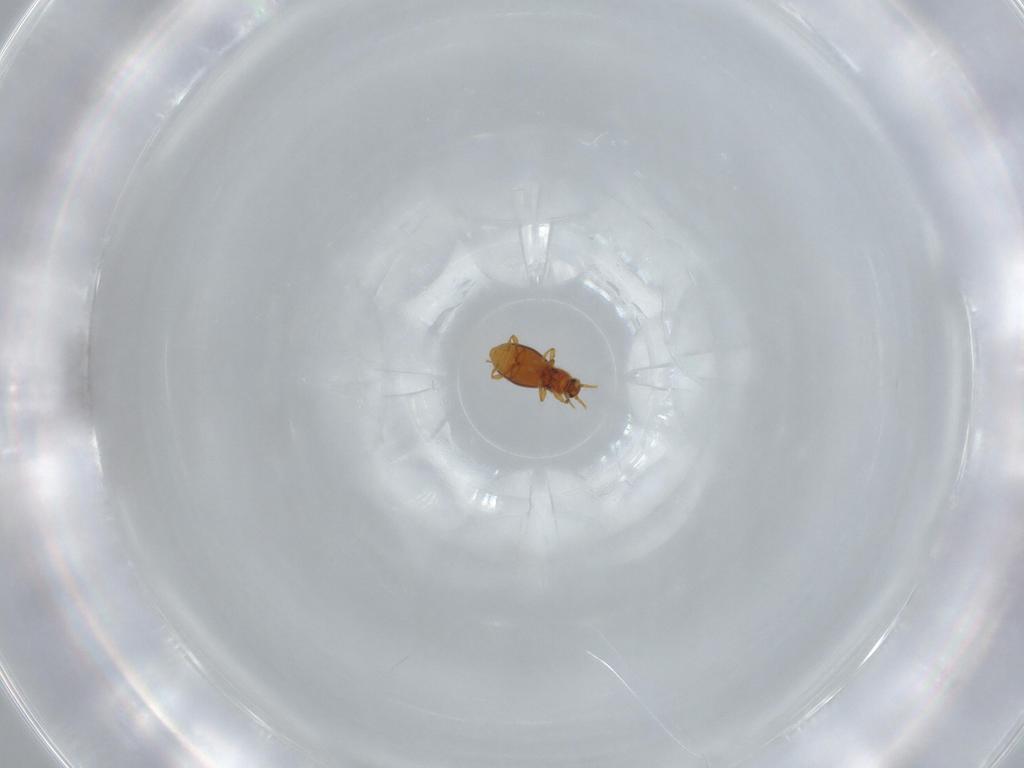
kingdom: Animalia
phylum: Arthropoda
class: Insecta
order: Coleoptera
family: Staphylinidae
